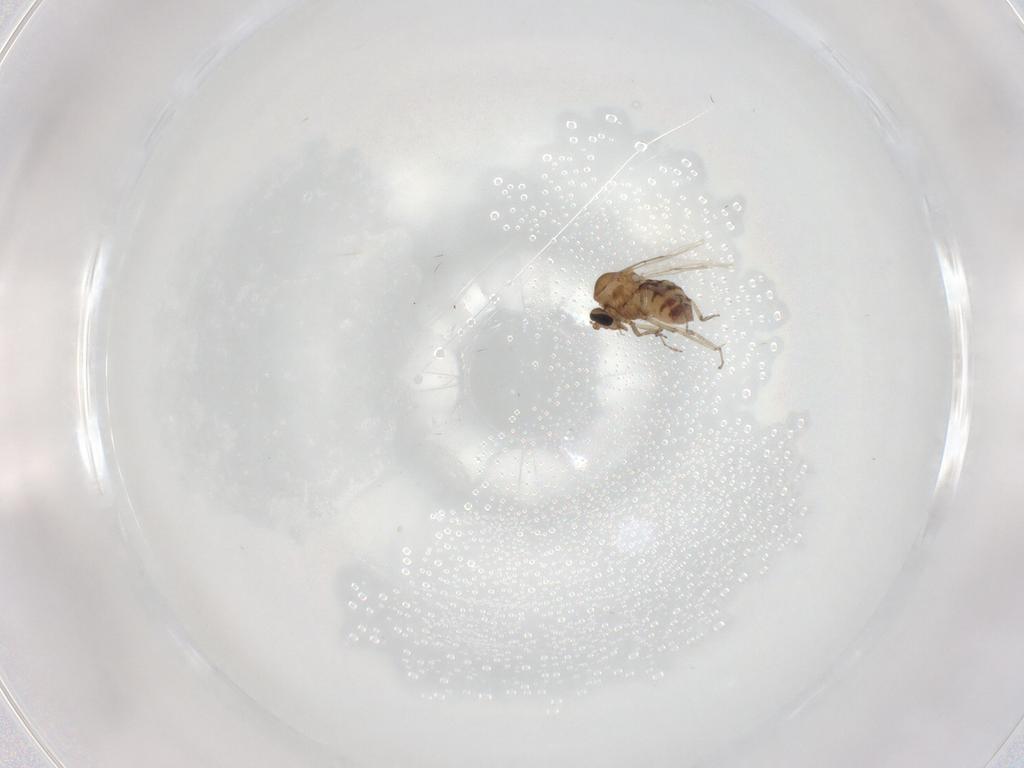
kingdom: Animalia
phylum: Arthropoda
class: Insecta
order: Diptera
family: Ceratopogonidae
